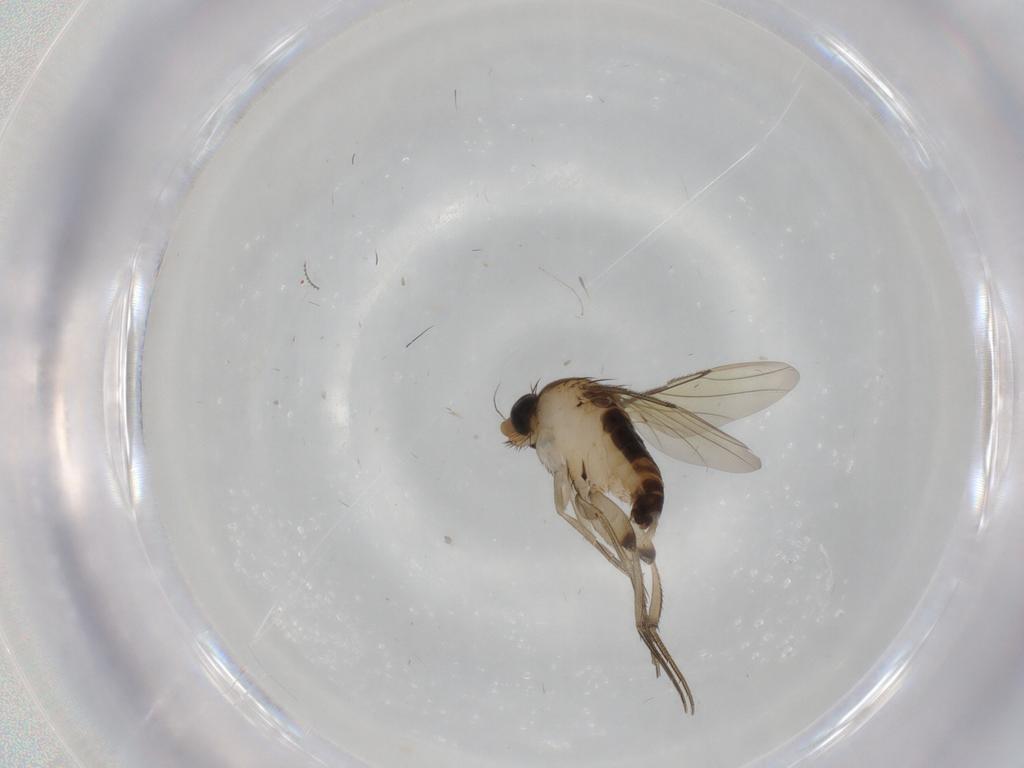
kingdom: Animalia
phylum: Arthropoda
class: Insecta
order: Diptera
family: Phoridae
